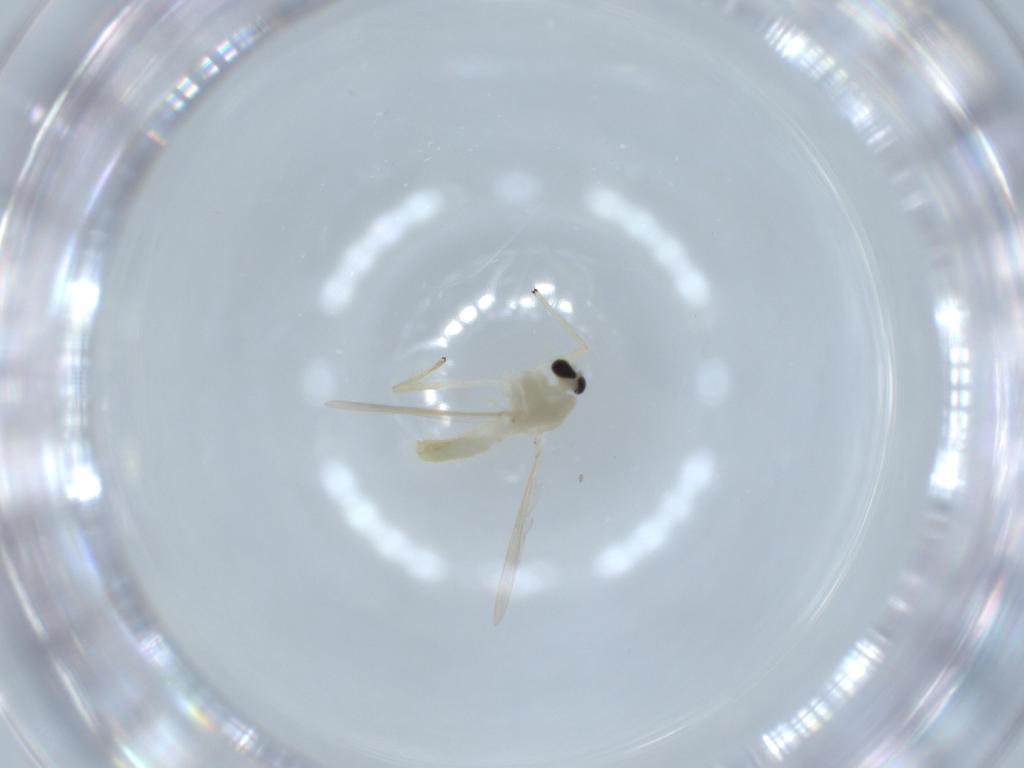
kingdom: Animalia
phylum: Arthropoda
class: Insecta
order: Diptera
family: Chironomidae
